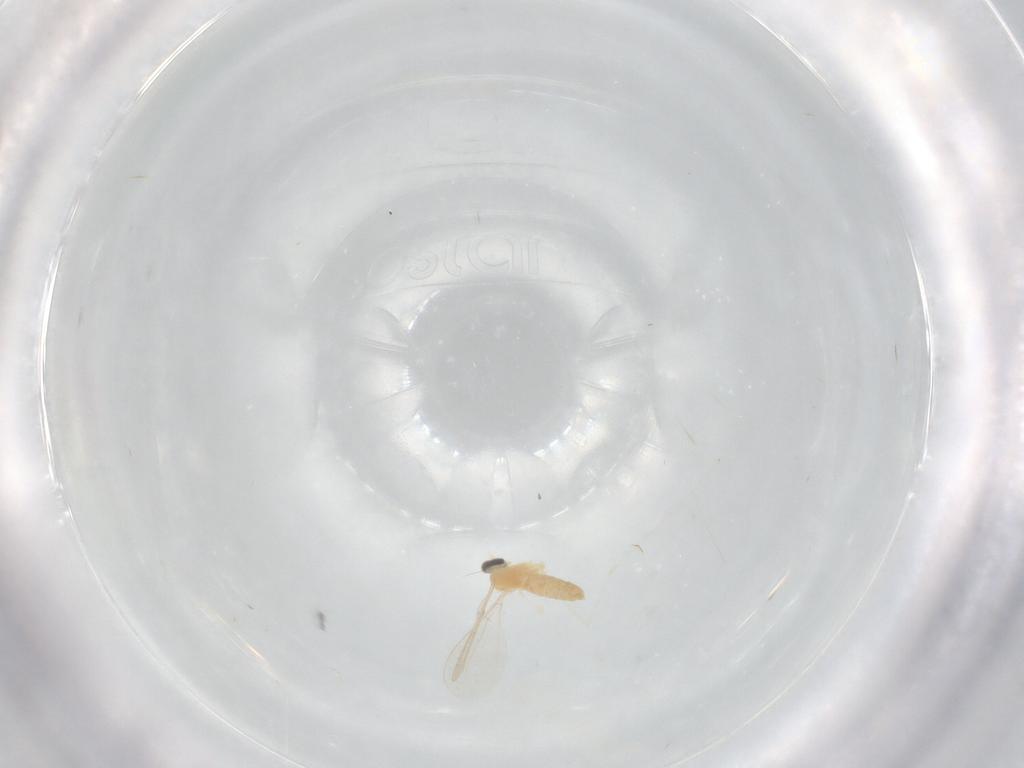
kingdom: Animalia
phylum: Arthropoda
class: Insecta
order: Diptera
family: Cecidomyiidae
